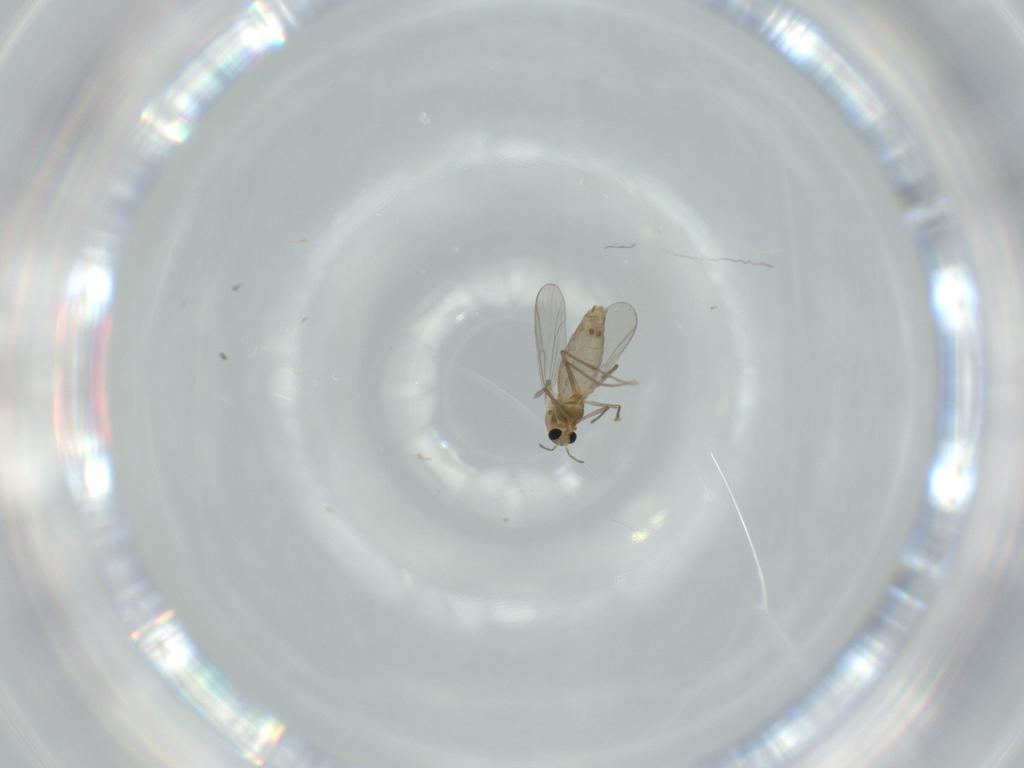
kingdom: Animalia
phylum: Arthropoda
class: Insecta
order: Diptera
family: Chironomidae
